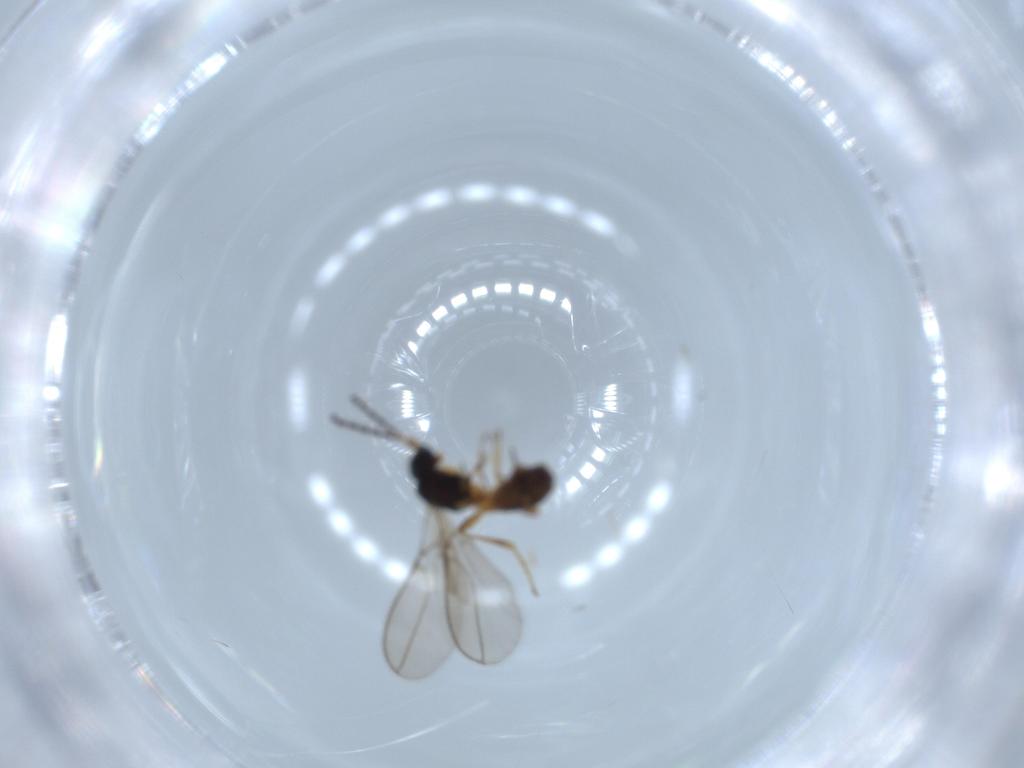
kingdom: Animalia
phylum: Arthropoda
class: Insecta
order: Hymenoptera
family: Braconidae
